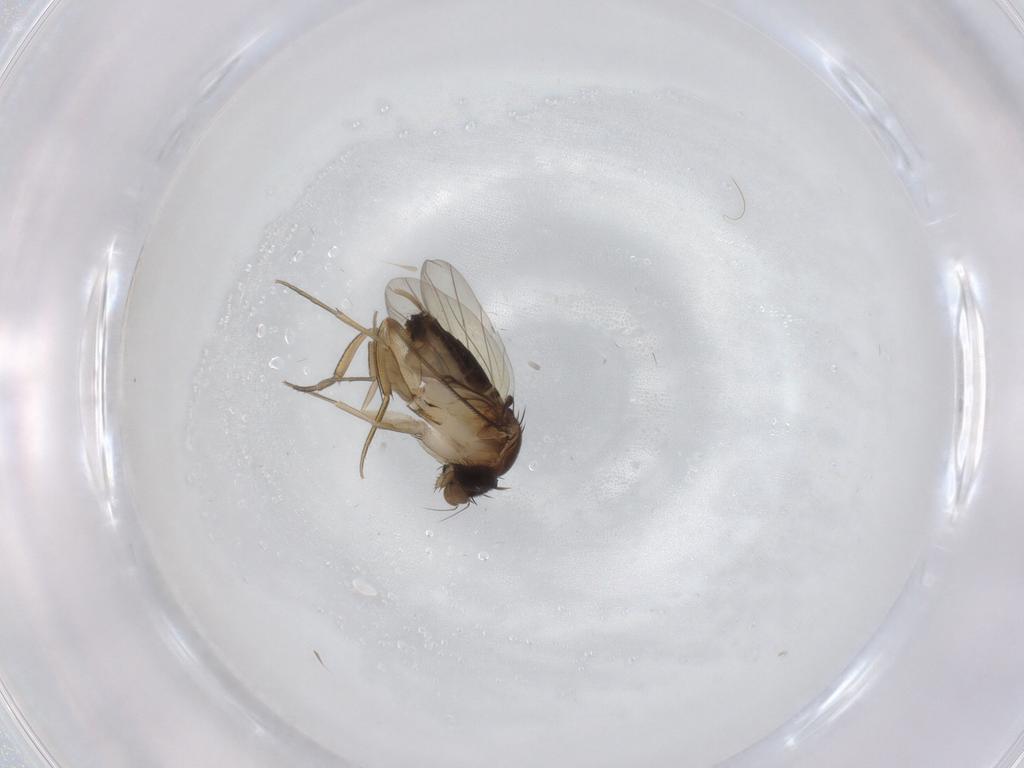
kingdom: Animalia
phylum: Arthropoda
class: Insecta
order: Diptera
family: Phoridae
